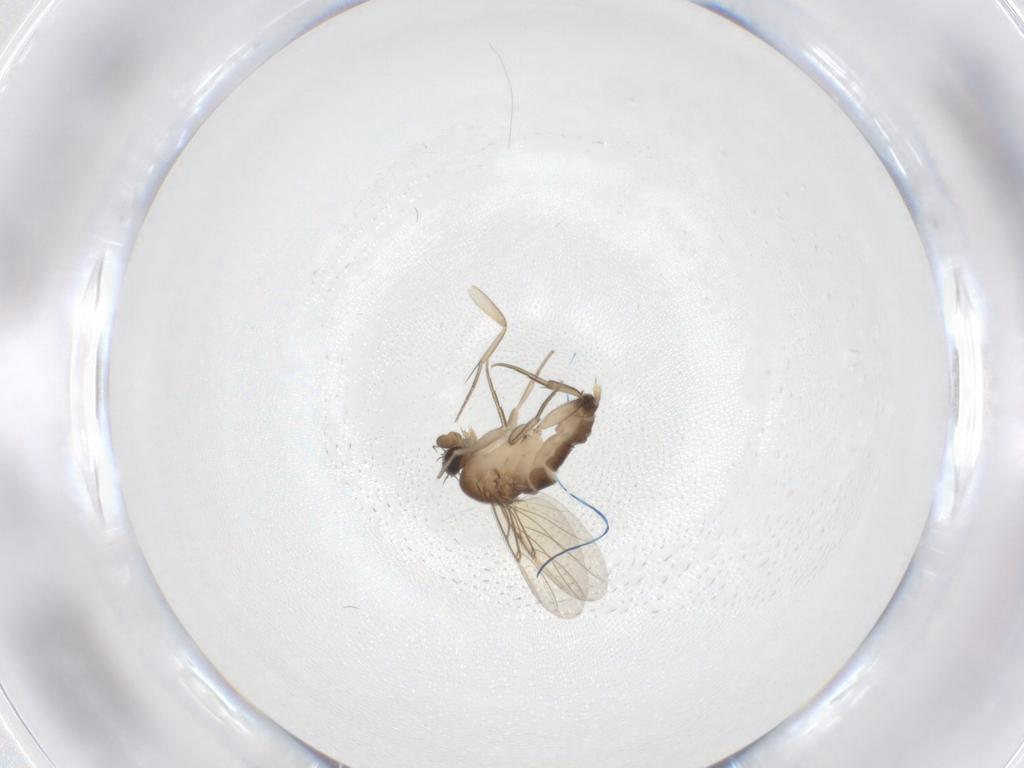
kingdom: Animalia
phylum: Arthropoda
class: Insecta
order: Diptera
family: Phoridae
